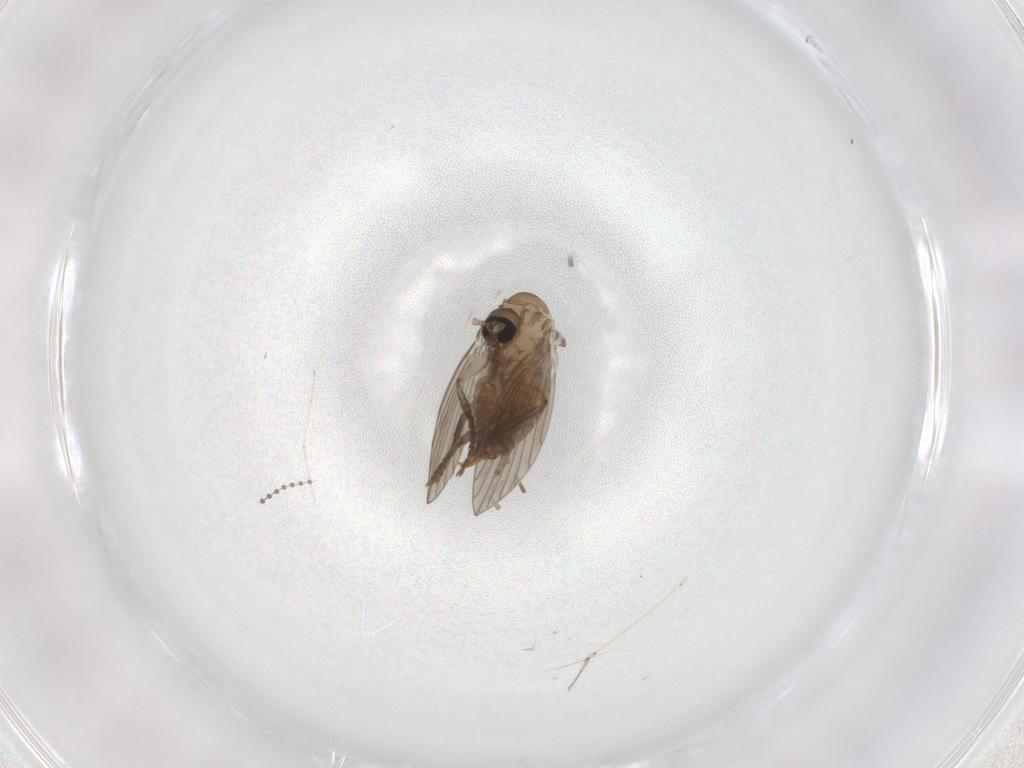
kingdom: Animalia
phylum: Arthropoda
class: Insecta
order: Diptera
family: Psychodidae
